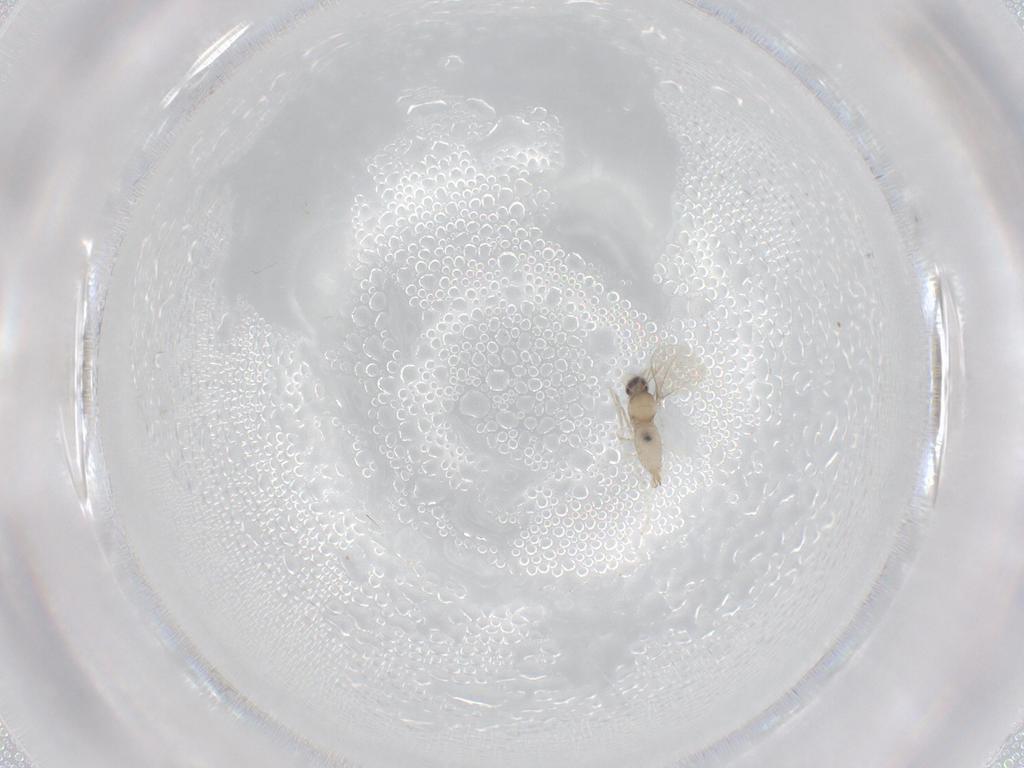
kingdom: Animalia
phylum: Arthropoda
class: Insecta
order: Diptera
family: Cecidomyiidae
